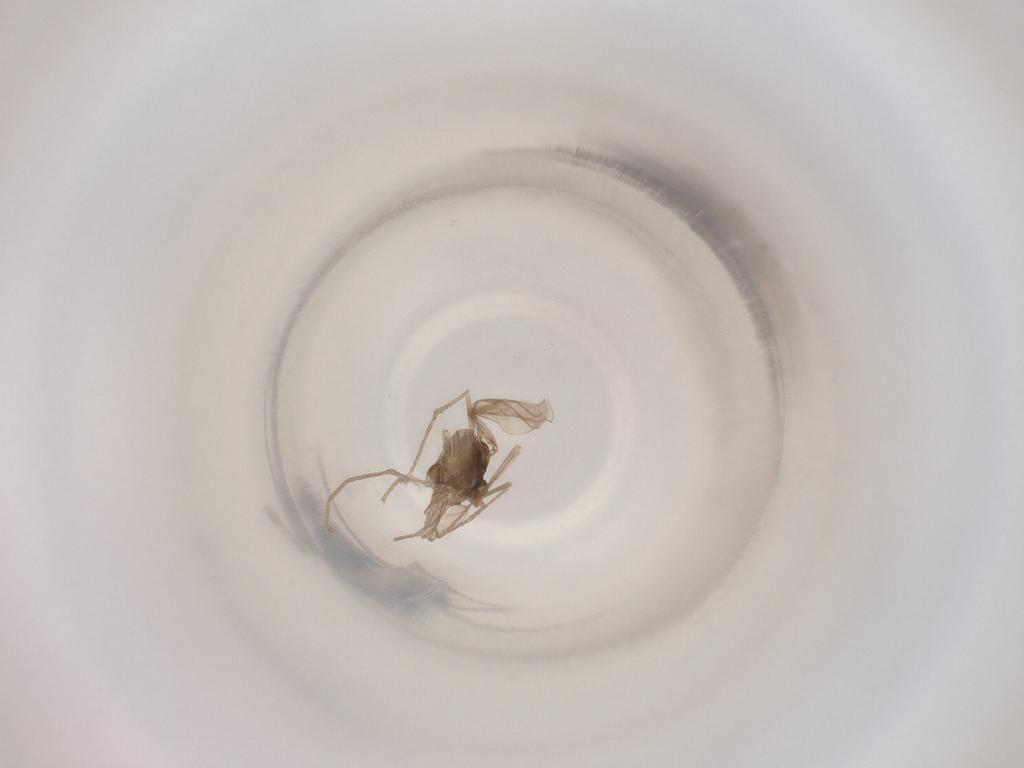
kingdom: Animalia
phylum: Arthropoda
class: Insecta
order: Diptera
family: Cecidomyiidae
